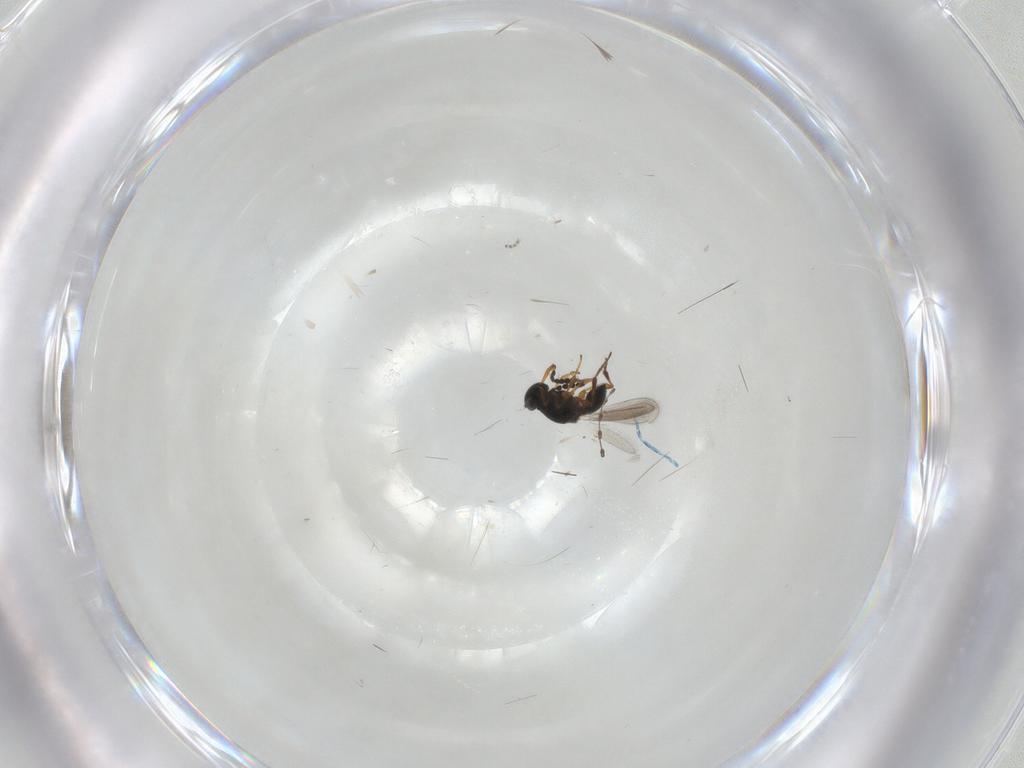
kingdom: Animalia
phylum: Arthropoda
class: Insecta
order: Hymenoptera
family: Platygastridae
